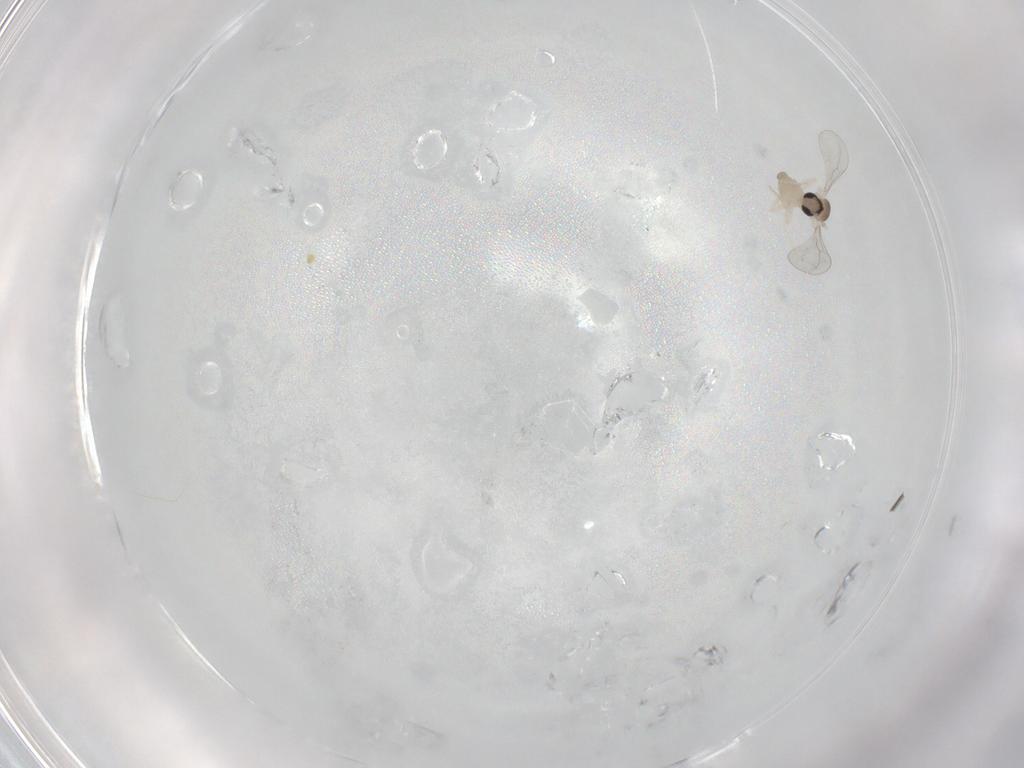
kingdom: Animalia
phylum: Arthropoda
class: Insecta
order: Diptera
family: Cecidomyiidae
